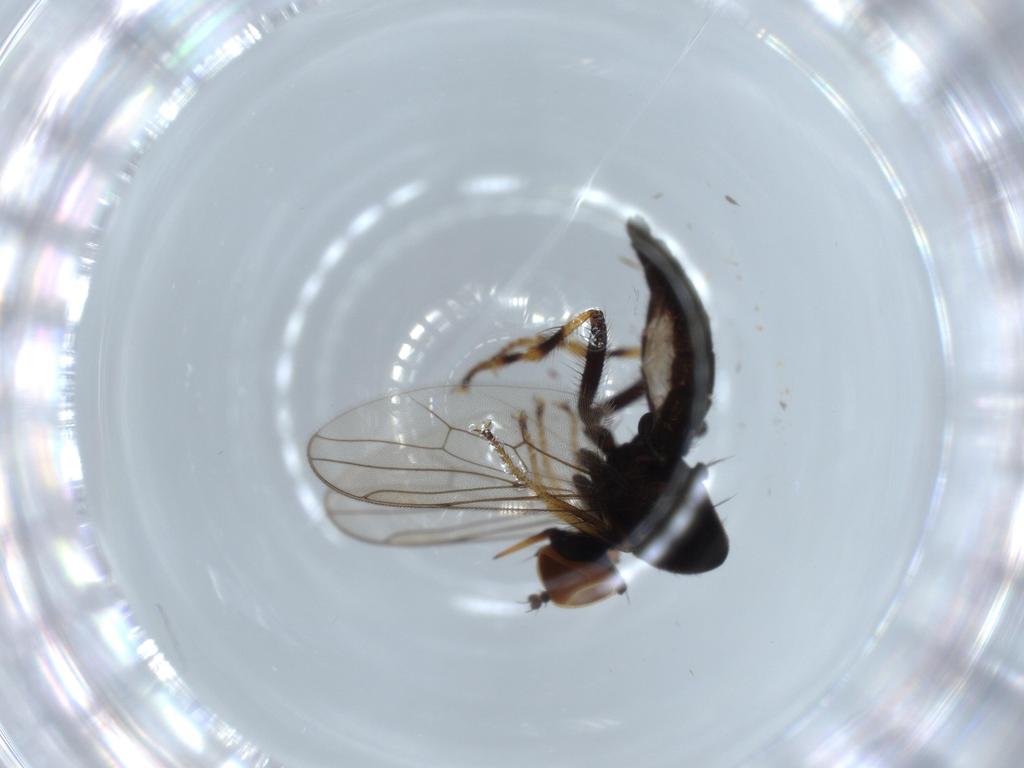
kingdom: Animalia
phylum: Arthropoda
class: Insecta
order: Diptera
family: Hybotidae
